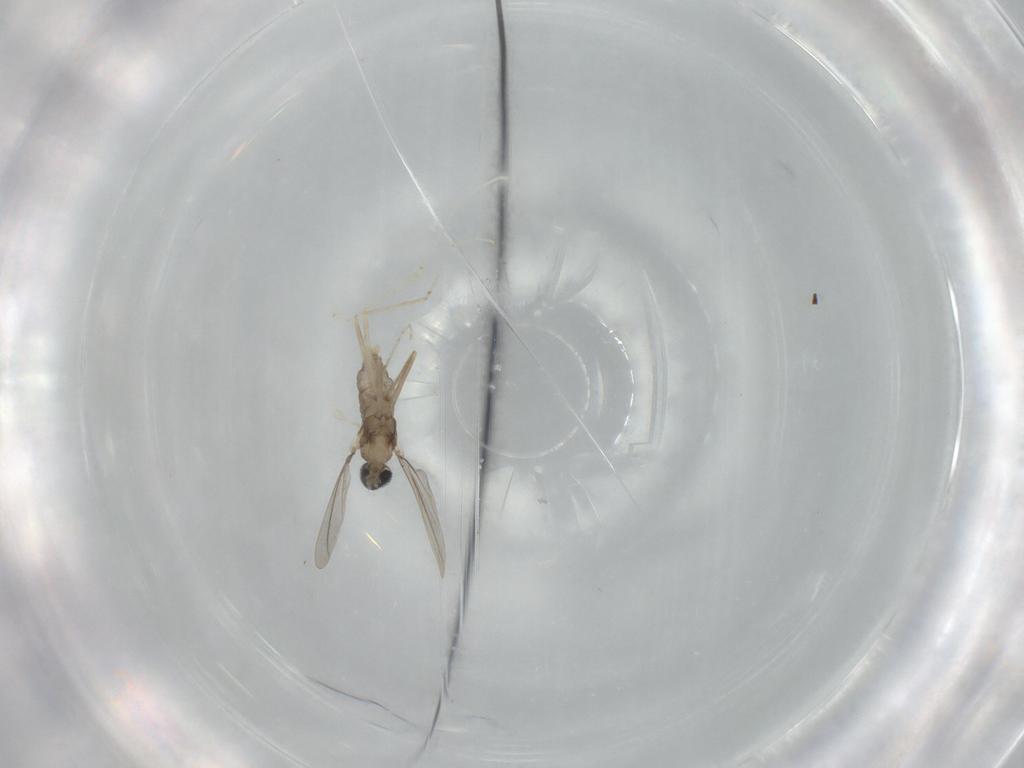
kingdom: Animalia
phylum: Arthropoda
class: Insecta
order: Diptera
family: Cecidomyiidae
